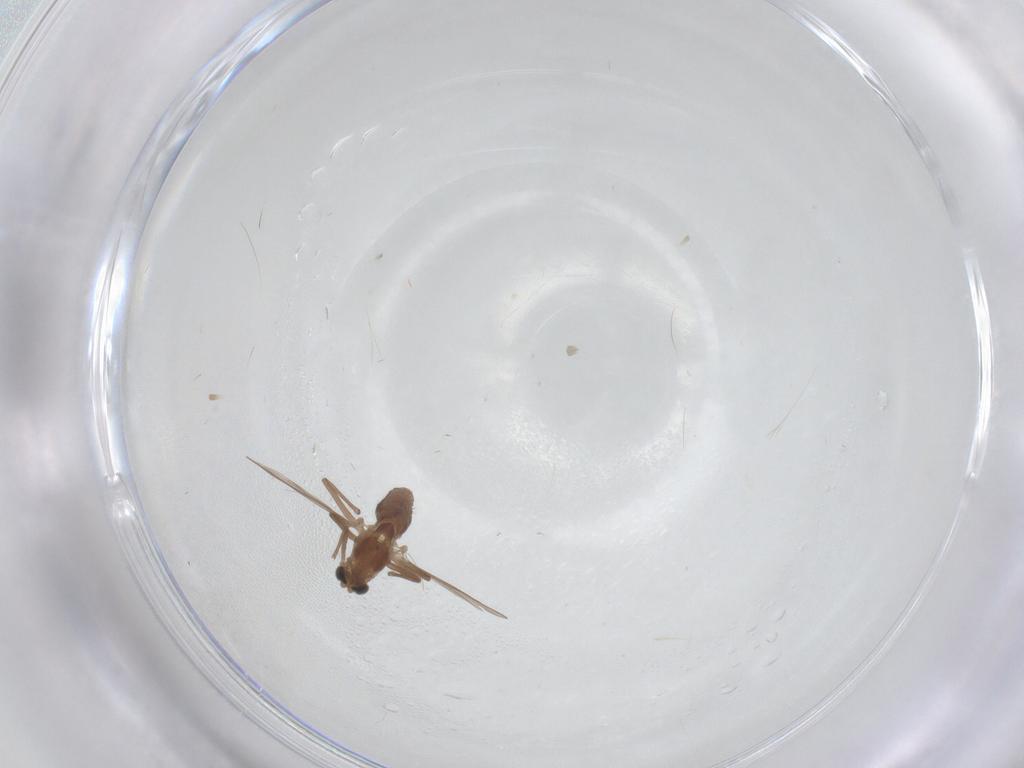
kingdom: Animalia
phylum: Arthropoda
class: Insecta
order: Diptera
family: Chironomidae
